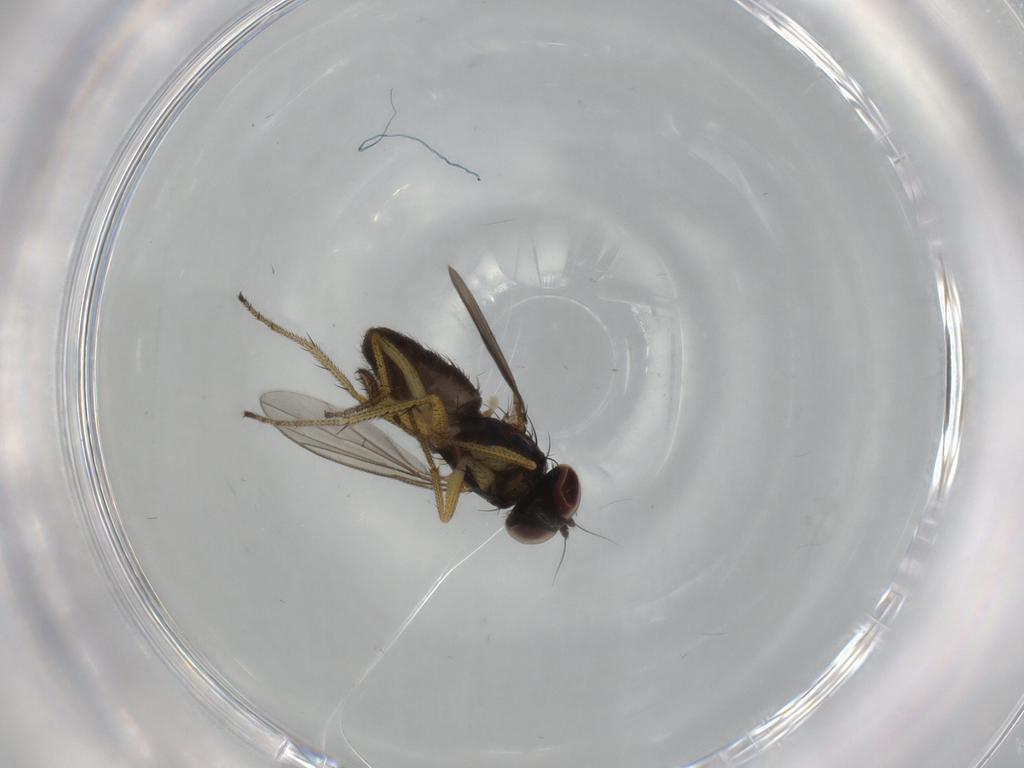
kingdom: Animalia
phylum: Arthropoda
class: Insecta
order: Diptera
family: Dolichopodidae
